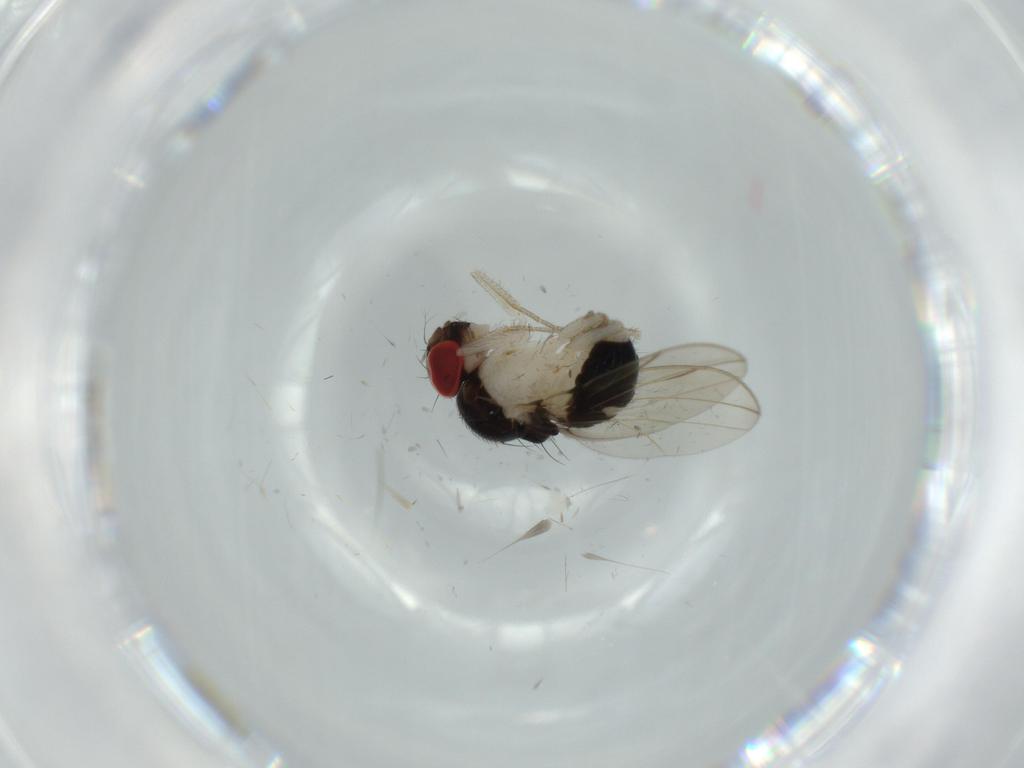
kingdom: Animalia
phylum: Arthropoda
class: Insecta
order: Diptera
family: Drosophilidae
